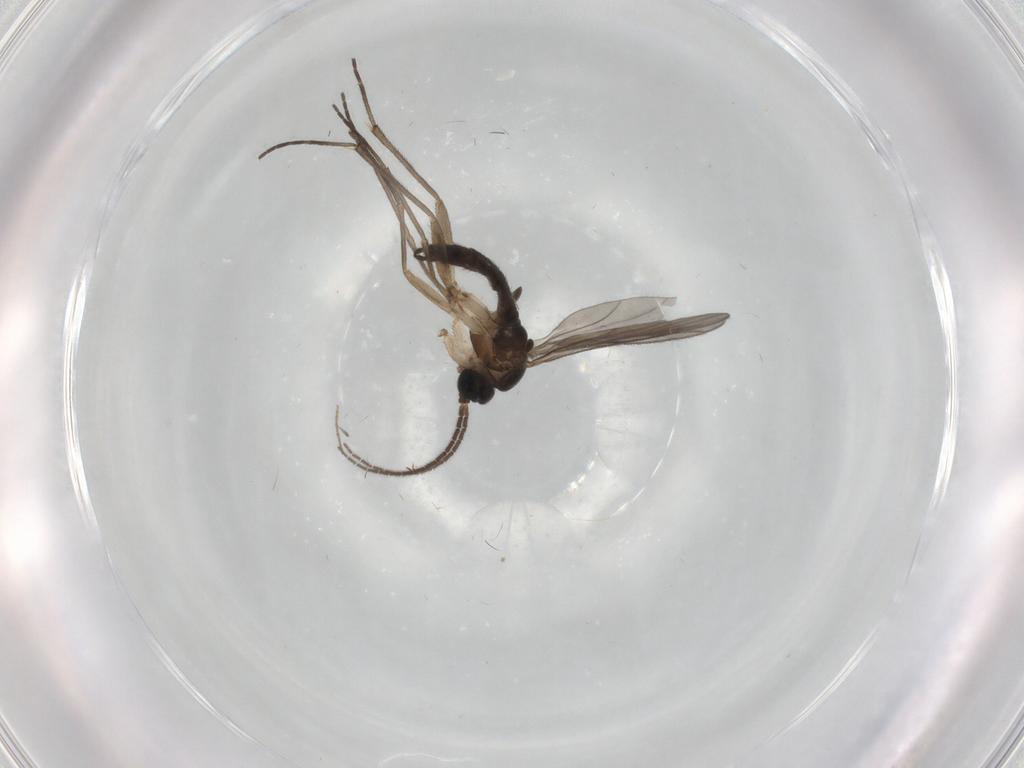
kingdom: Animalia
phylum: Arthropoda
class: Insecta
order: Diptera
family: Sciaridae
